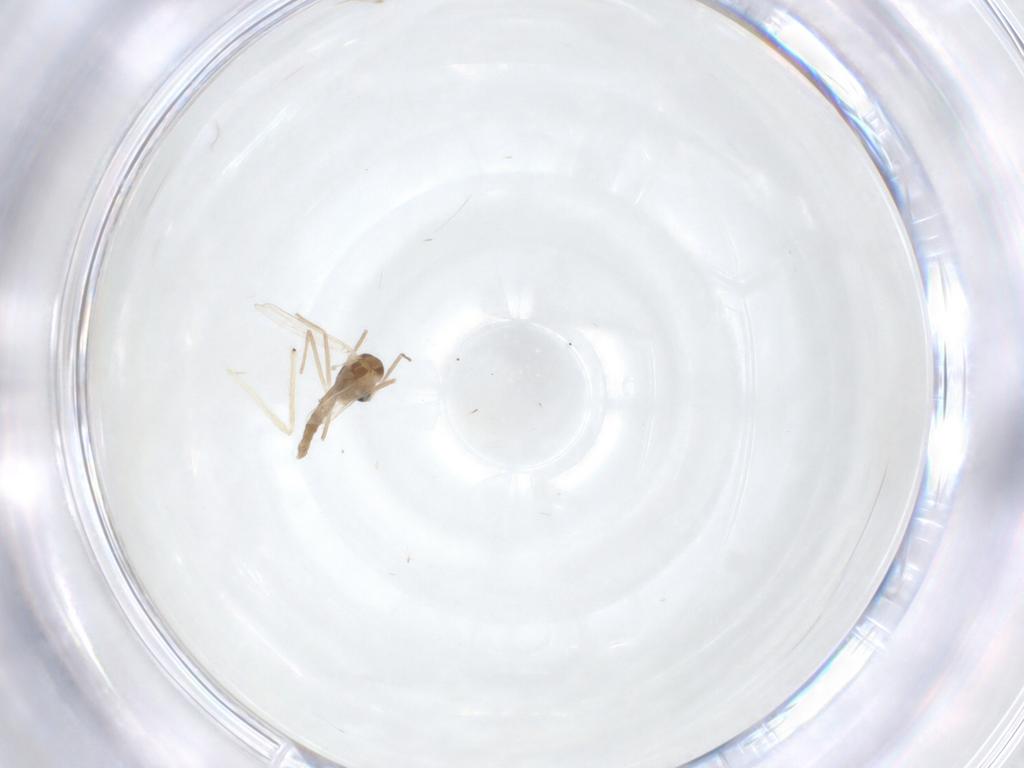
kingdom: Animalia
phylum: Arthropoda
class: Insecta
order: Diptera
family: Chironomidae
